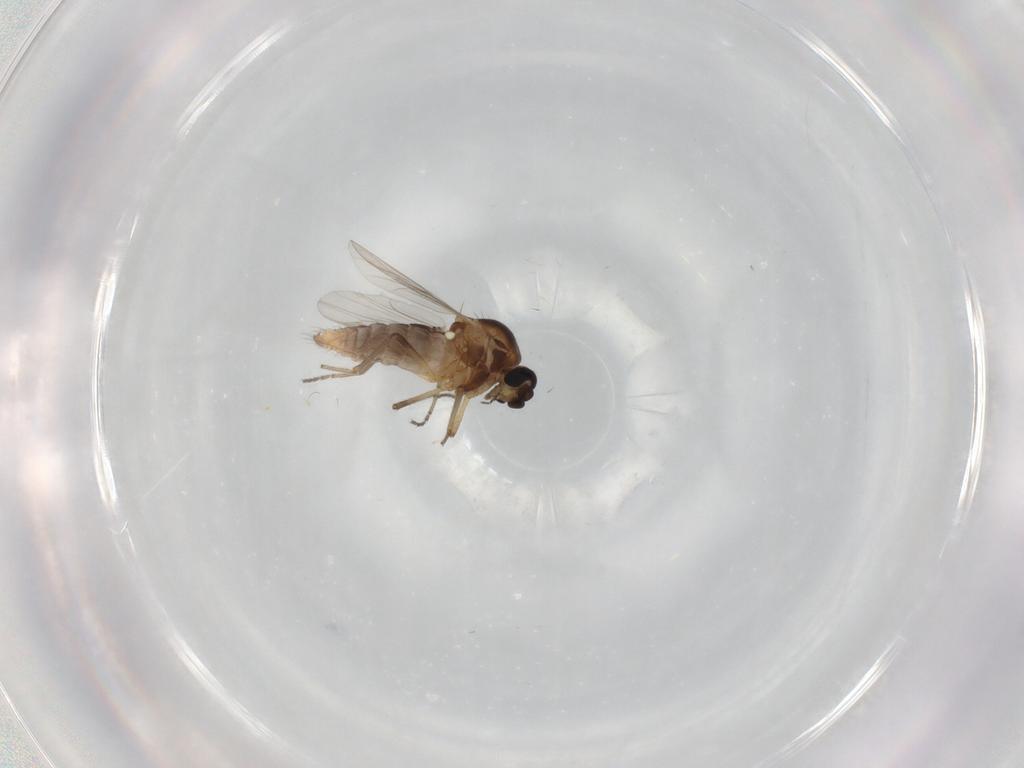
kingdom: Animalia
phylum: Arthropoda
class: Insecta
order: Diptera
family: Ceratopogonidae
